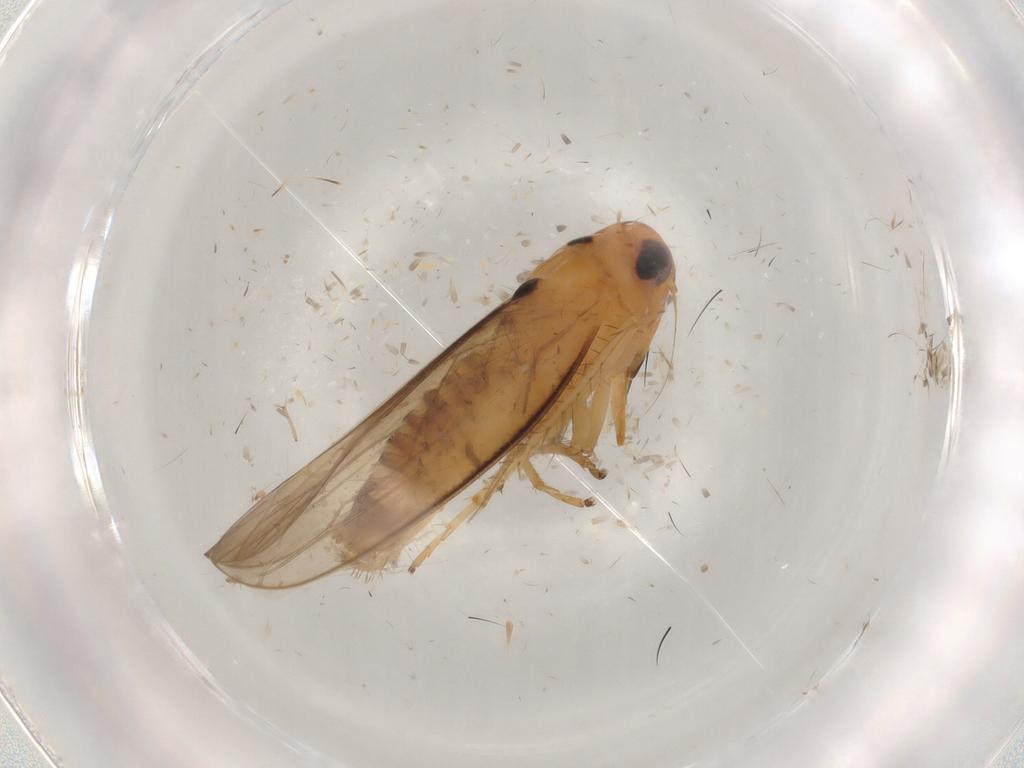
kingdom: Animalia
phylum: Arthropoda
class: Insecta
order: Hemiptera
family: Cicadellidae
